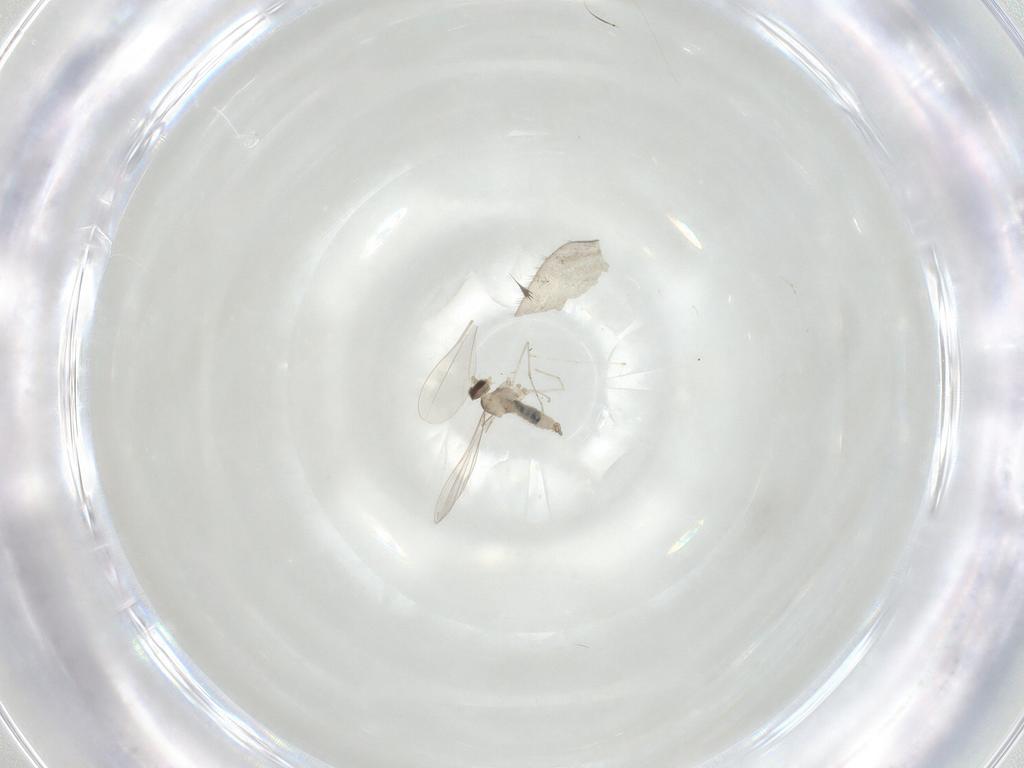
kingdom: Animalia
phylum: Arthropoda
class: Insecta
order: Diptera
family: Cecidomyiidae
